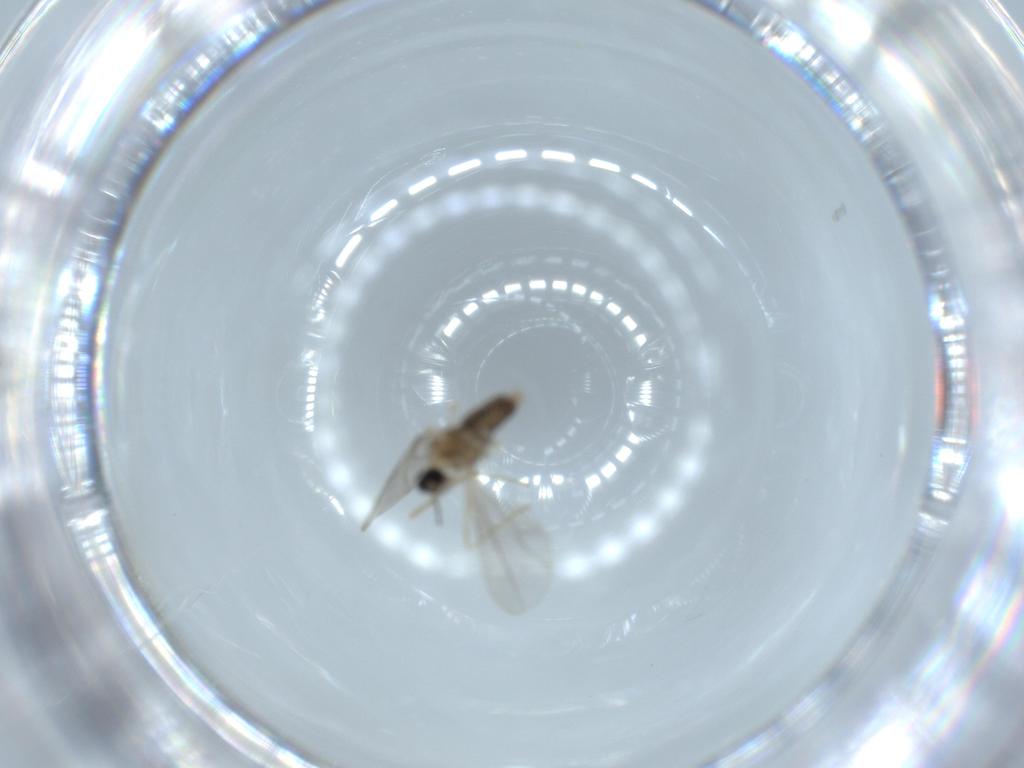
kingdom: Animalia
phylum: Arthropoda
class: Insecta
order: Diptera
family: Cecidomyiidae
